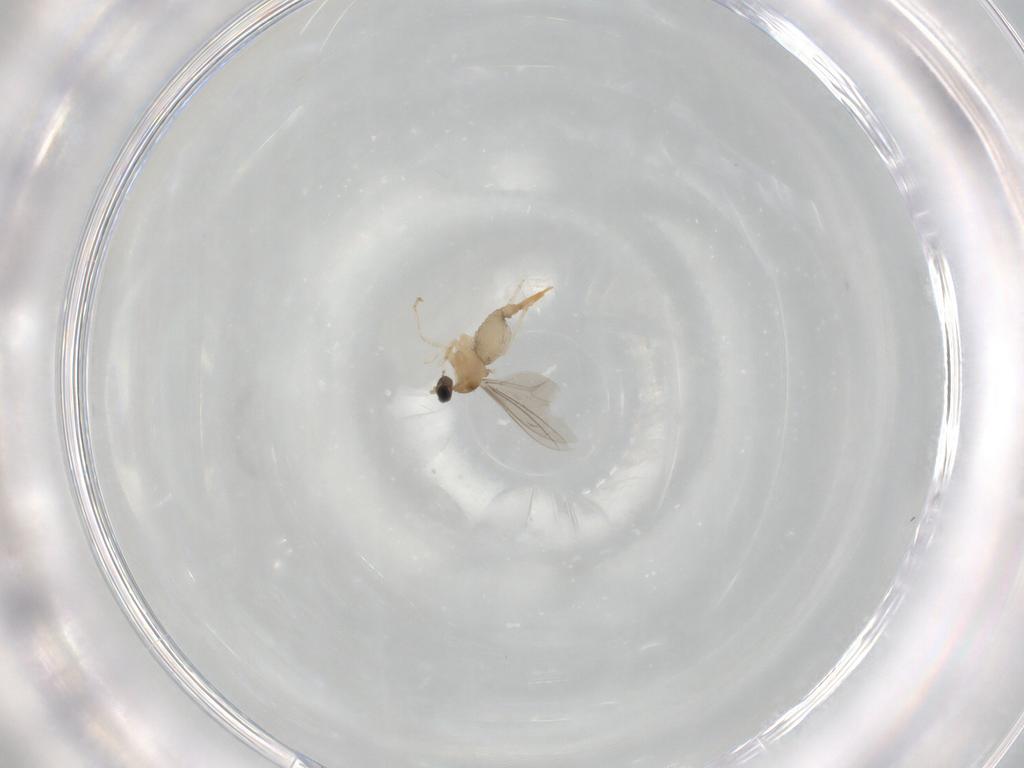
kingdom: Animalia
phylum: Arthropoda
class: Insecta
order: Diptera
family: Cecidomyiidae
